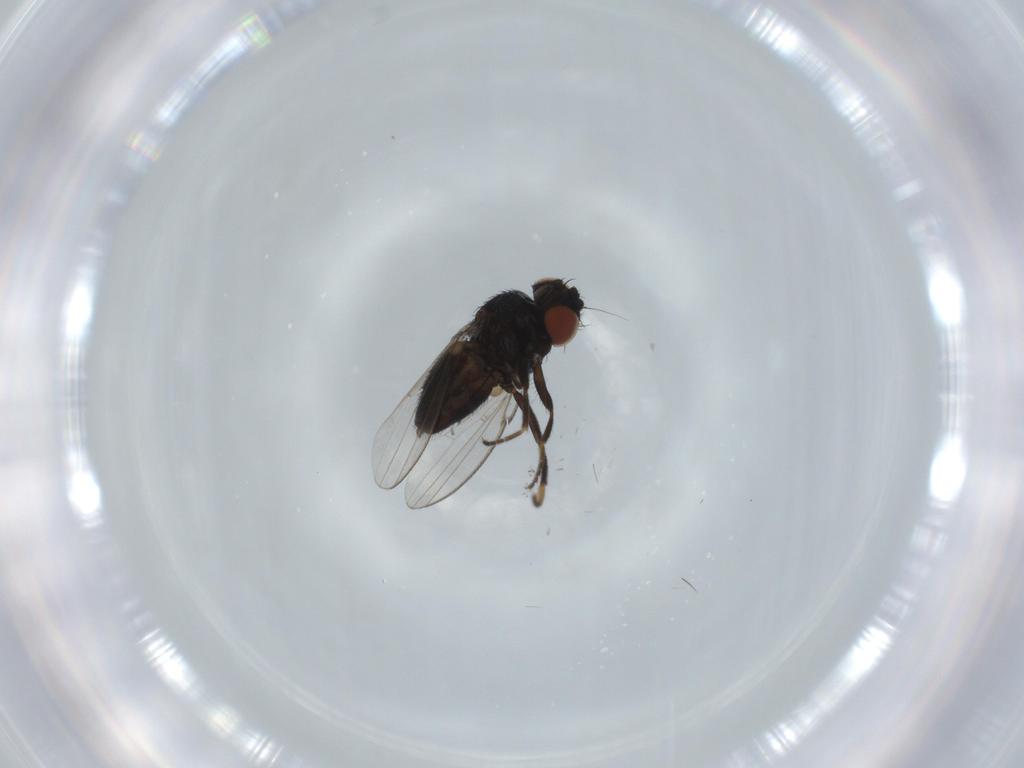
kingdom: Animalia
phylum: Arthropoda
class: Insecta
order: Diptera
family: Milichiidae
